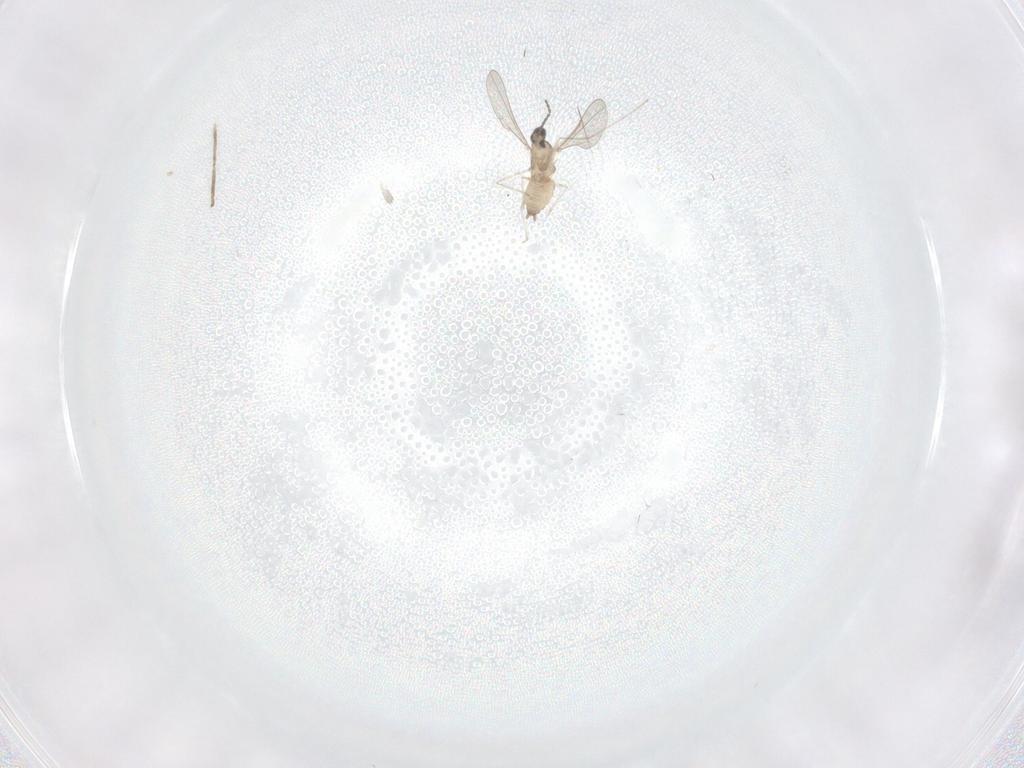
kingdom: Animalia
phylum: Arthropoda
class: Insecta
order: Diptera
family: Cecidomyiidae
